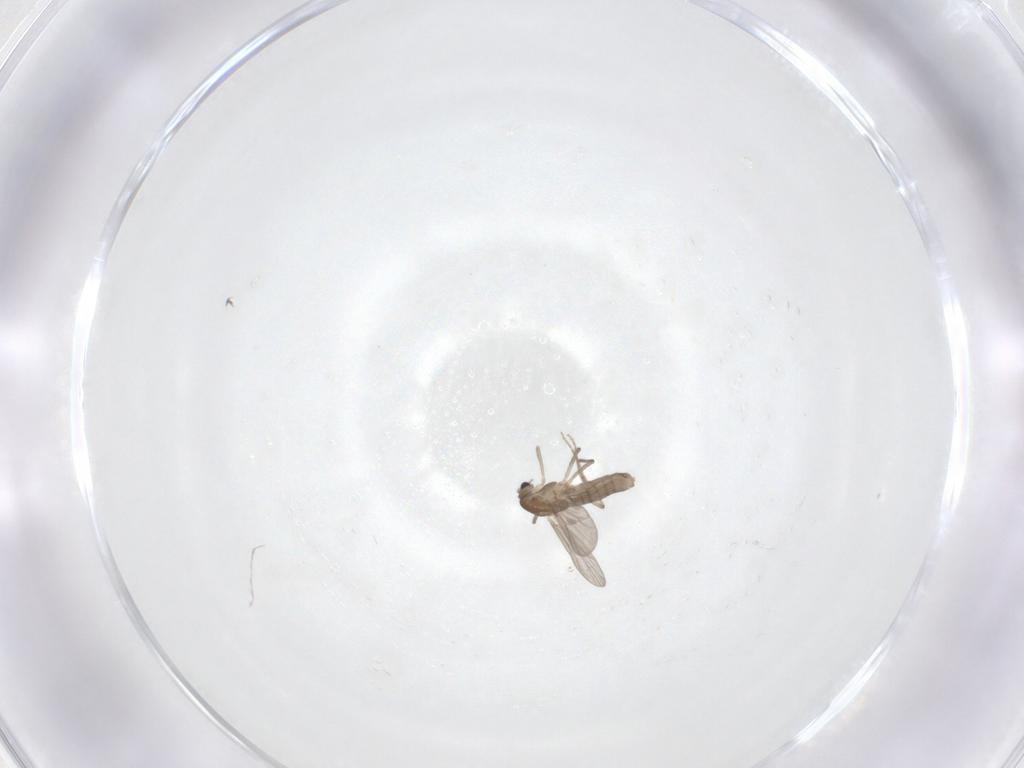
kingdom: Animalia
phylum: Arthropoda
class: Insecta
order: Diptera
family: Chironomidae
